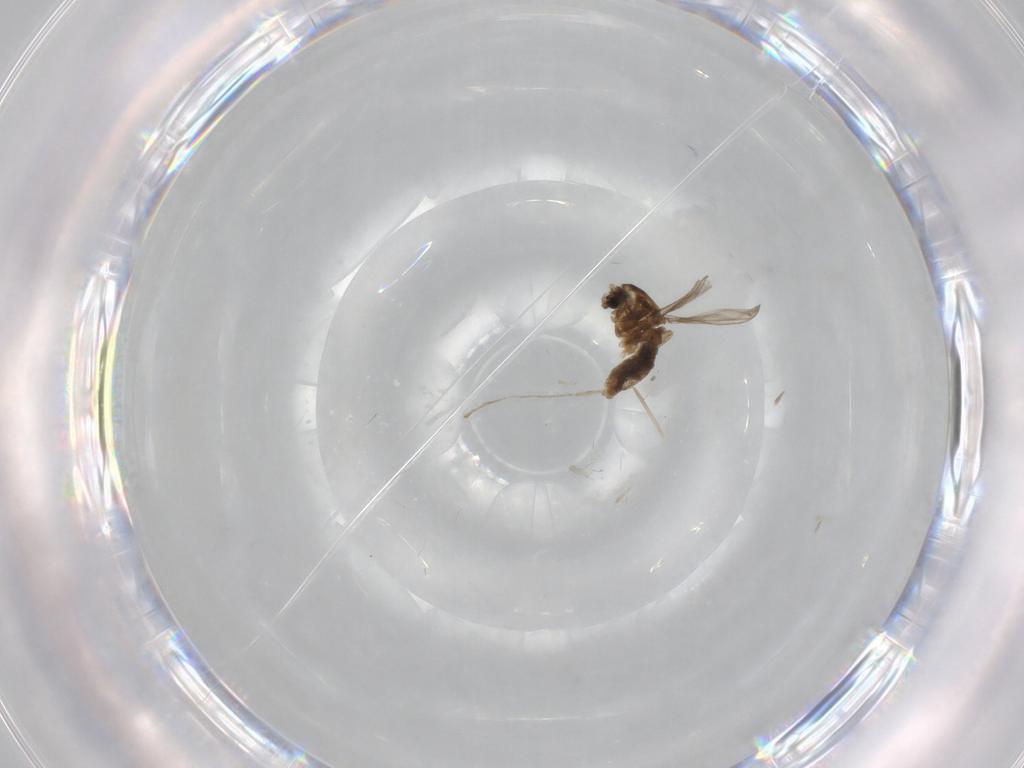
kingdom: Animalia
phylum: Arthropoda
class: Insecta
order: Diptera
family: Chironomidae
